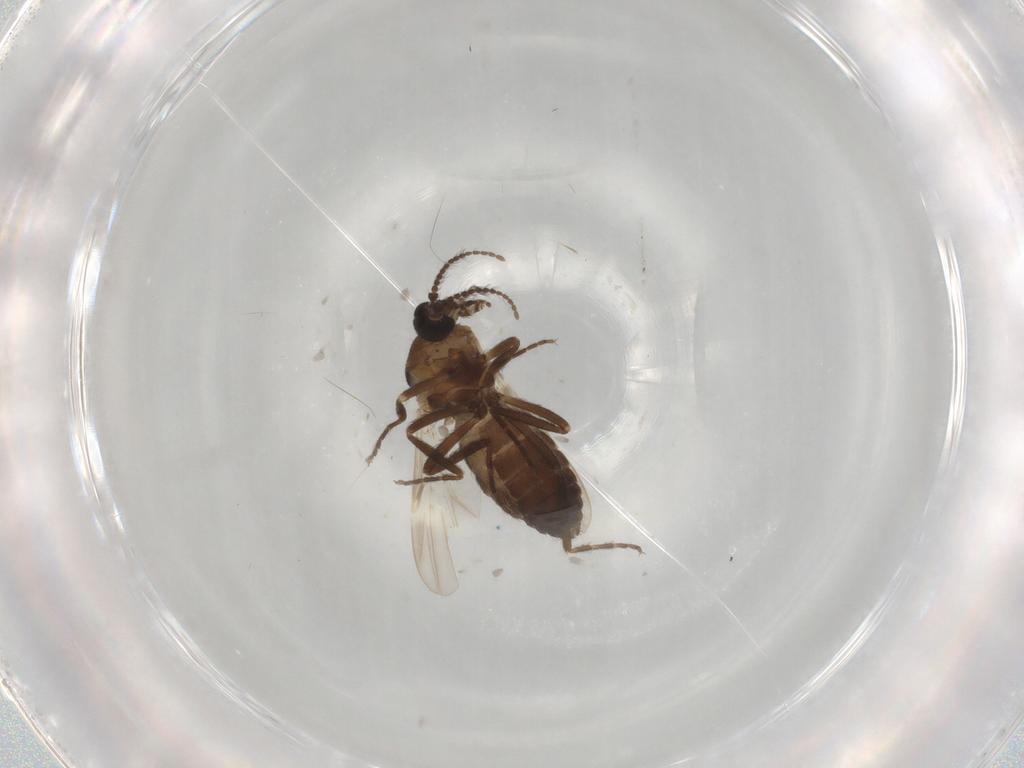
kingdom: Animalia
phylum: Arthropoda
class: Insecta
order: Diptera
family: Ceratopogonidae
